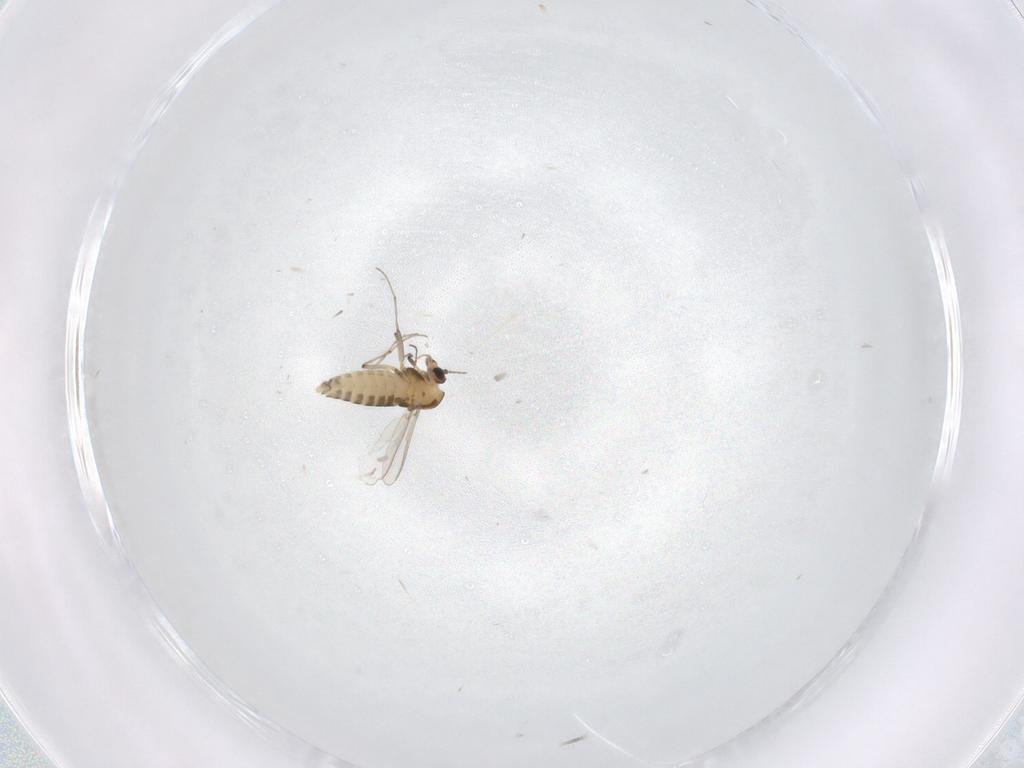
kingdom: Animalia
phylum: Arthropoda
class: Insecta
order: Diptera
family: Chironomidae
